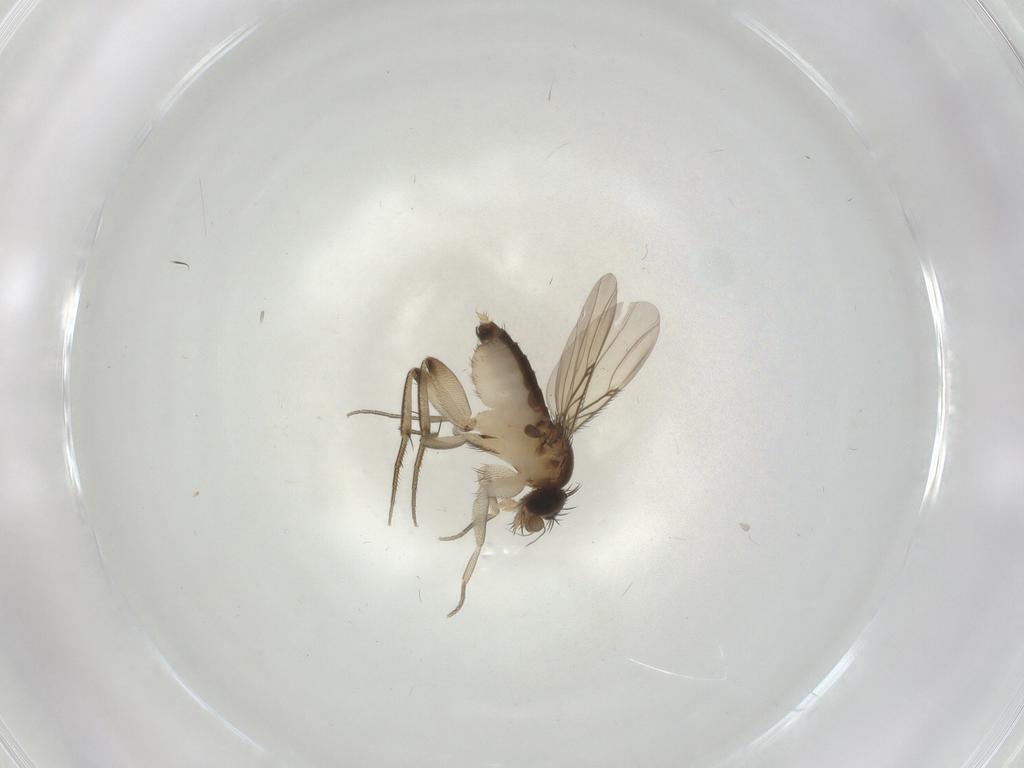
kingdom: Animalia
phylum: Arthropoda
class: Insecta
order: Diptera
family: Phoridae
